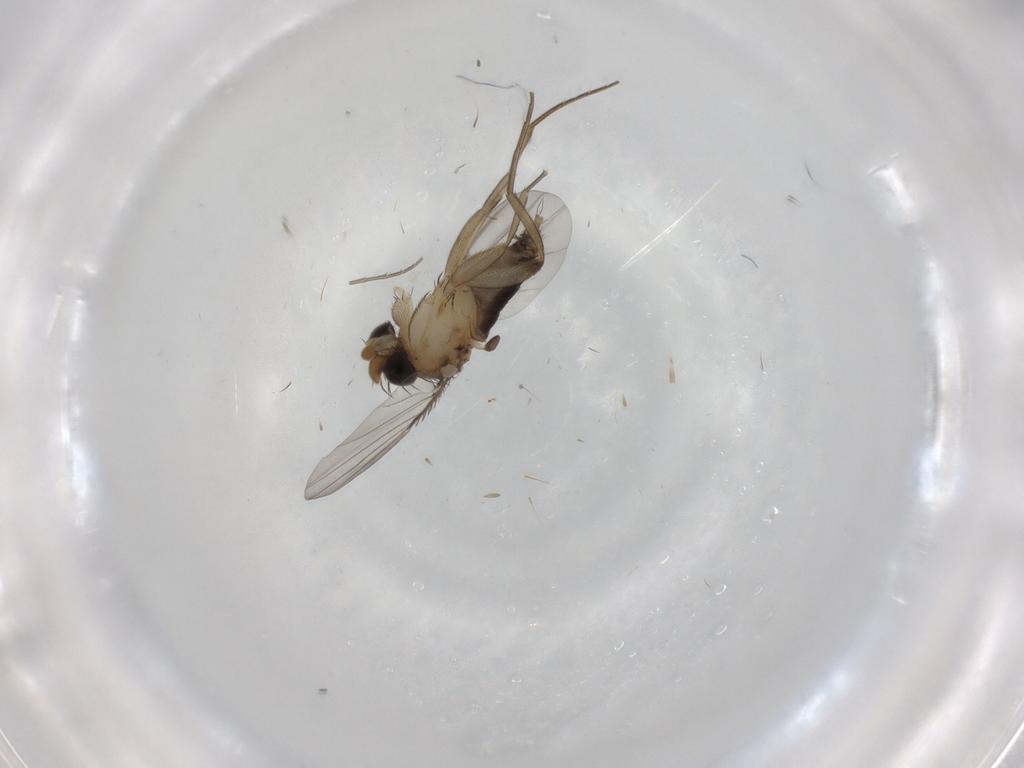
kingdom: Animalia
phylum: Arthropoda
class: Insecta
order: Diptera
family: Phoridae
